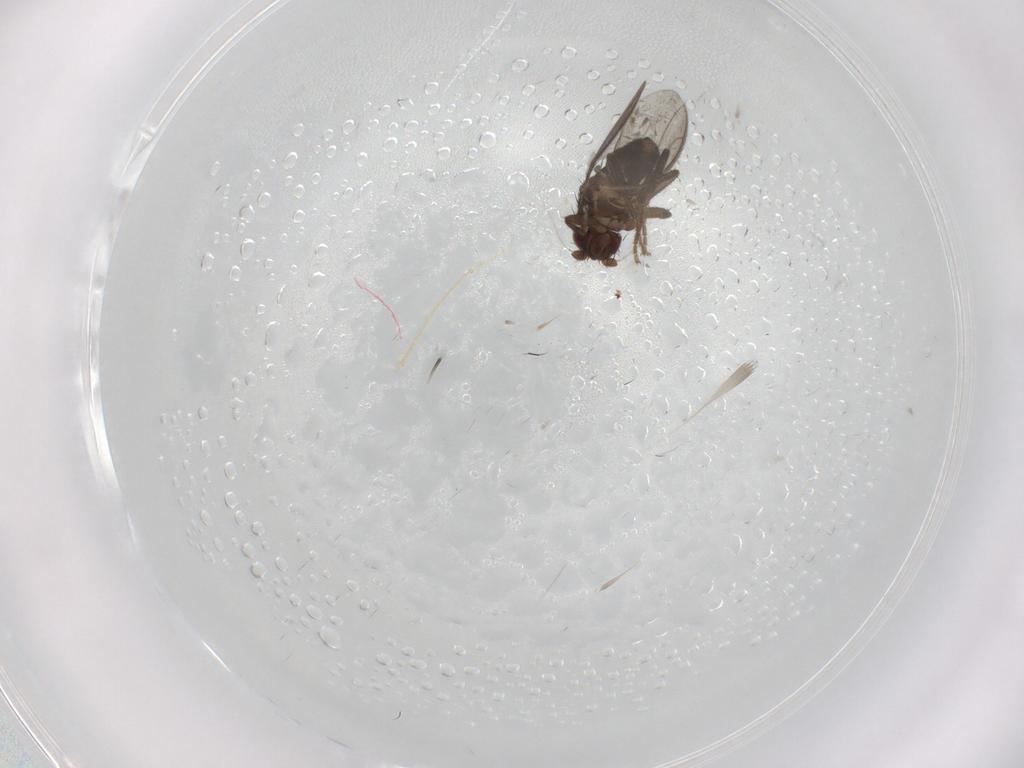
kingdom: Animalia
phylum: Arthropoda
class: Insecta
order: Diptera
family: Sphaeroceridae
